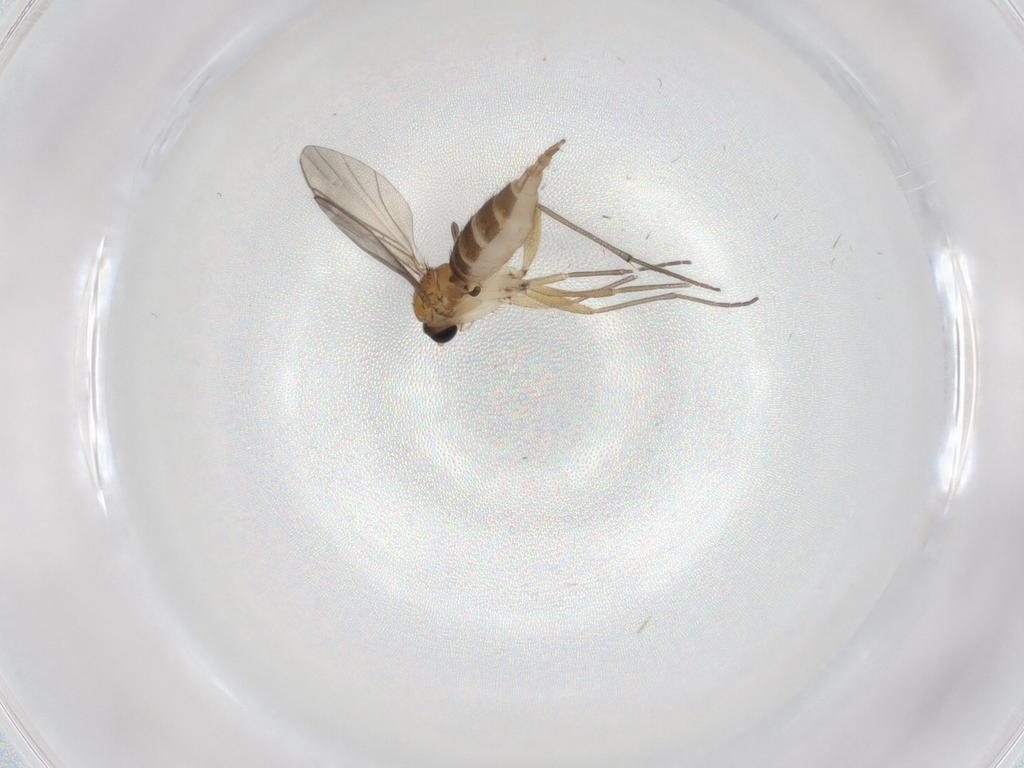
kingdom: Animalia
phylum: Arthropoda
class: Insecta
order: Diptera
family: Sciaridae
